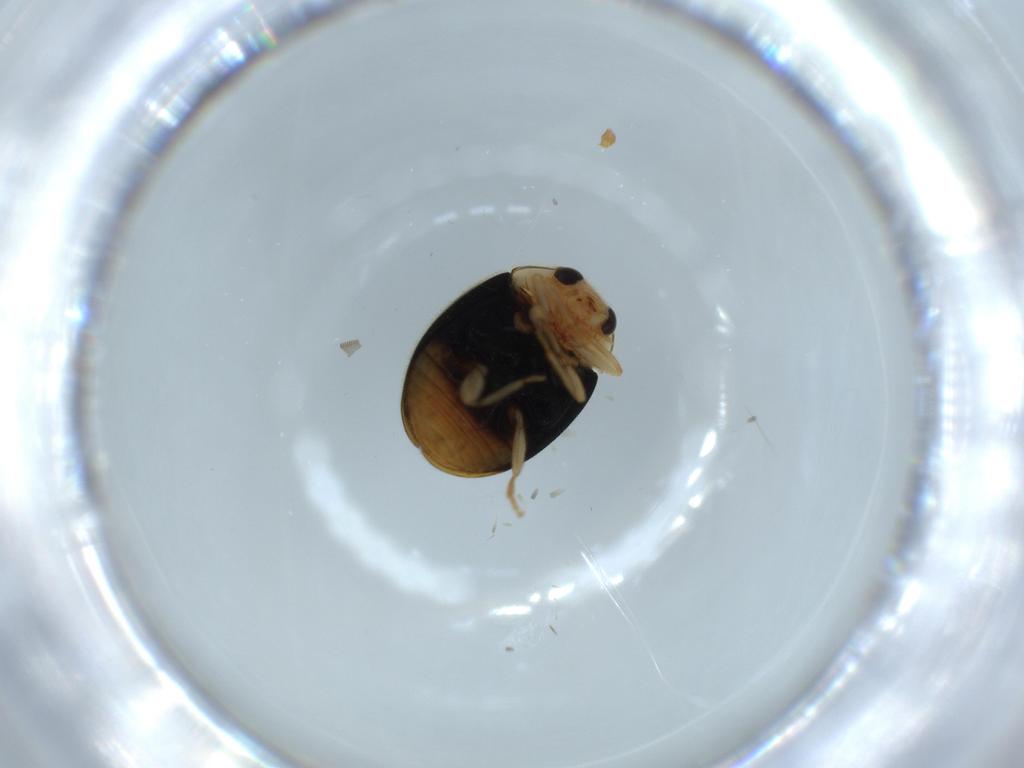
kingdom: Animalia
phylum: Arthropoda
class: Insecta
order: Coleoptera
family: Coccinellidae
